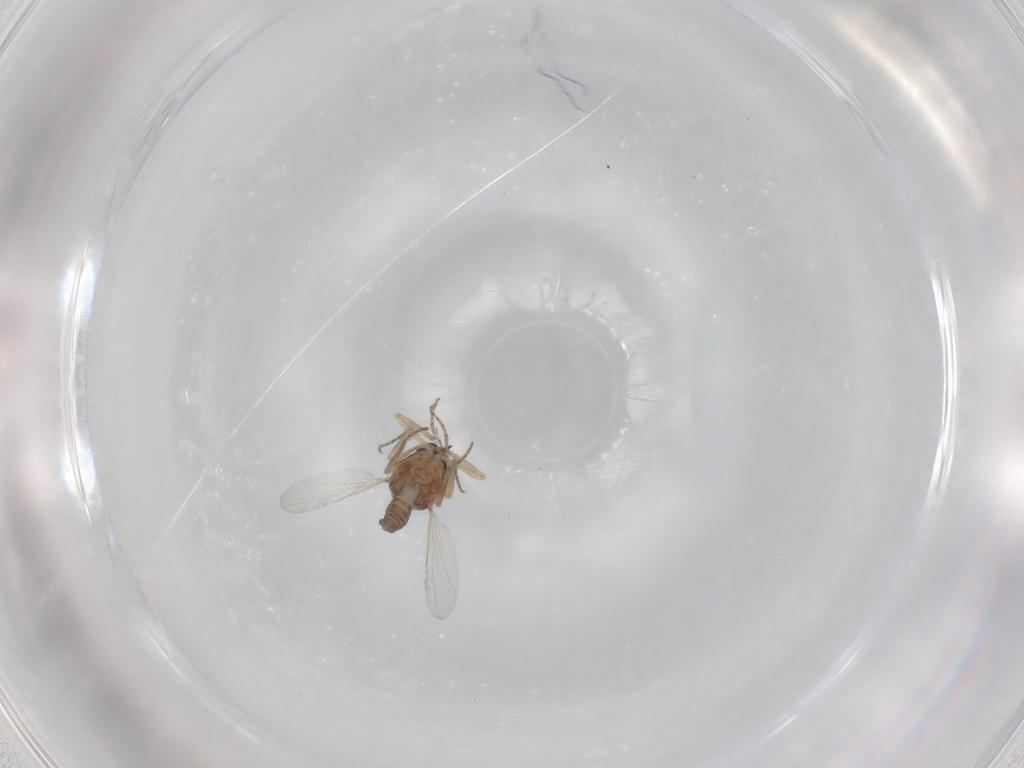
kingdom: Animalia
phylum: Arthropoda
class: Insecta
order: Diptera
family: Ceratopogonidae
